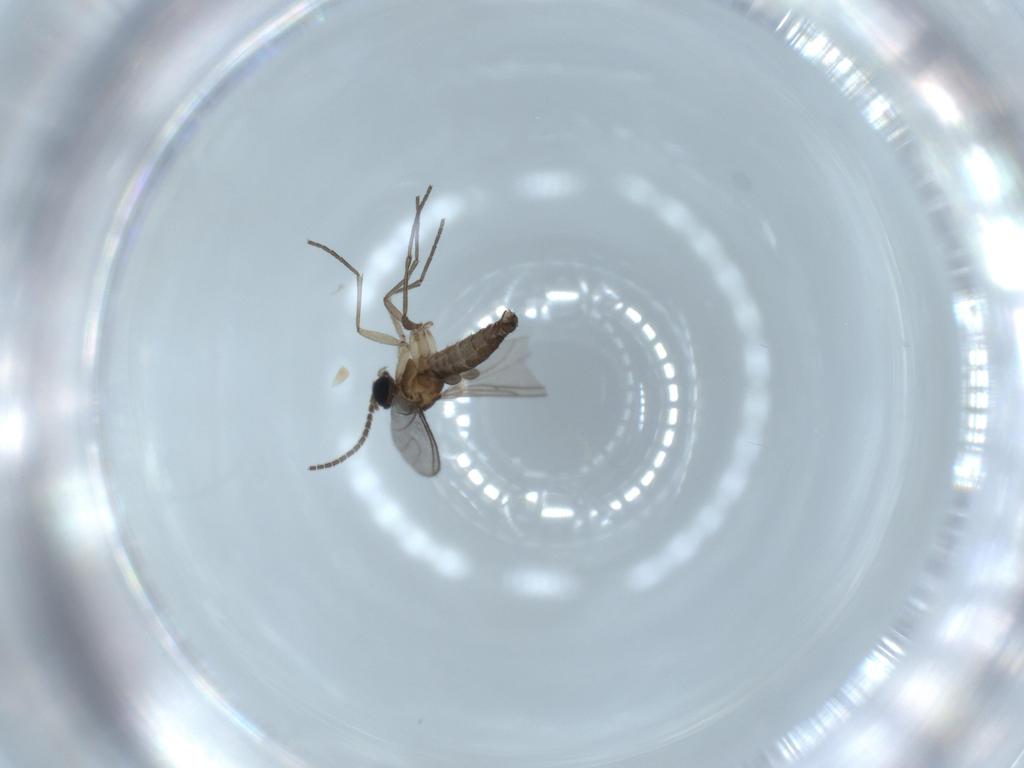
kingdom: Animalia
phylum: Arthropoda
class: Insecta
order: Diptera
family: Sciaridae
